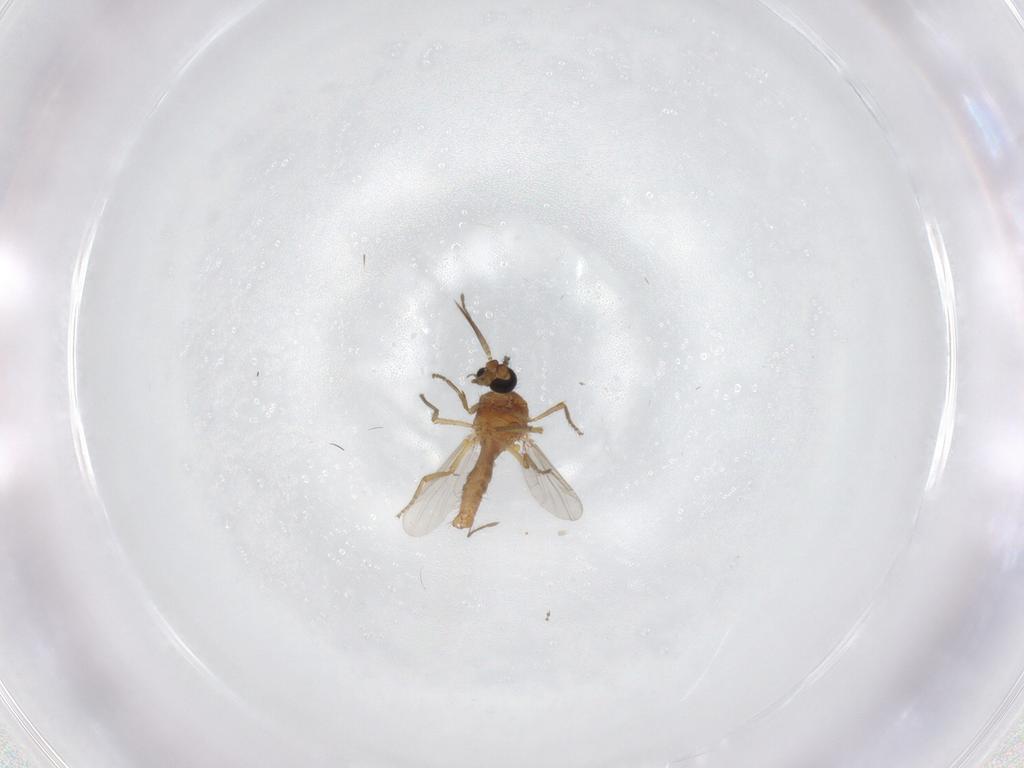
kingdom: Animalia
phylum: Arthropoda
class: Insecta
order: Diptera
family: Ceratopogonidae
